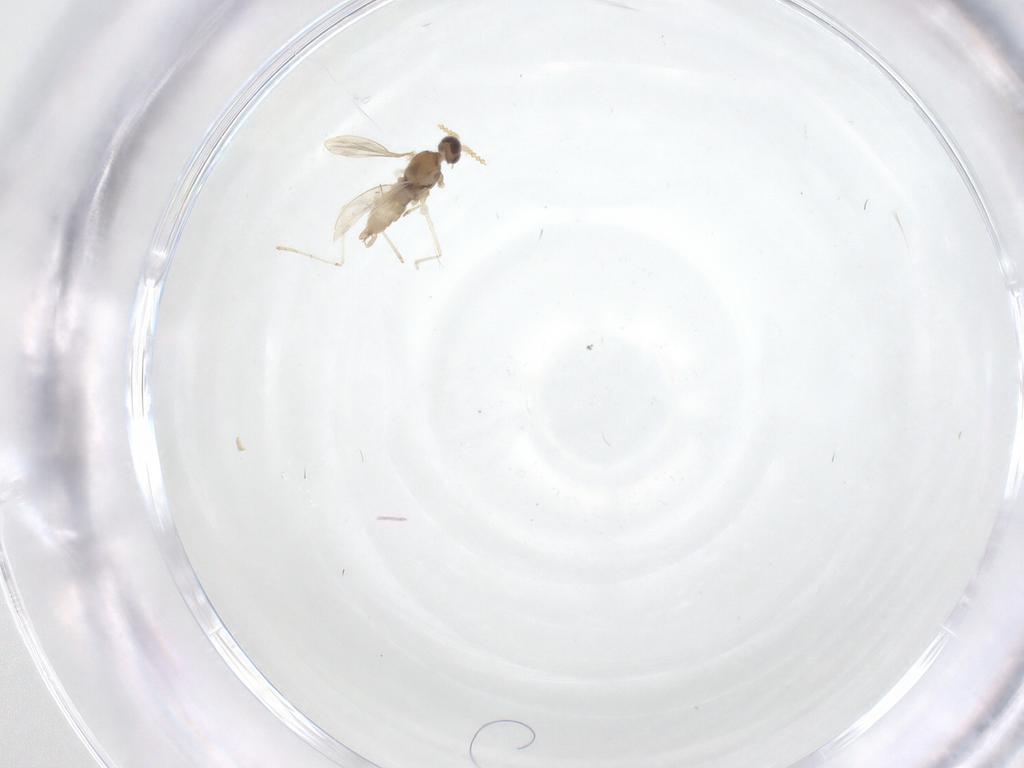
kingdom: Animalia
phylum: Arthropoda
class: Insecta
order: Diptera
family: Cecidomyiidae
